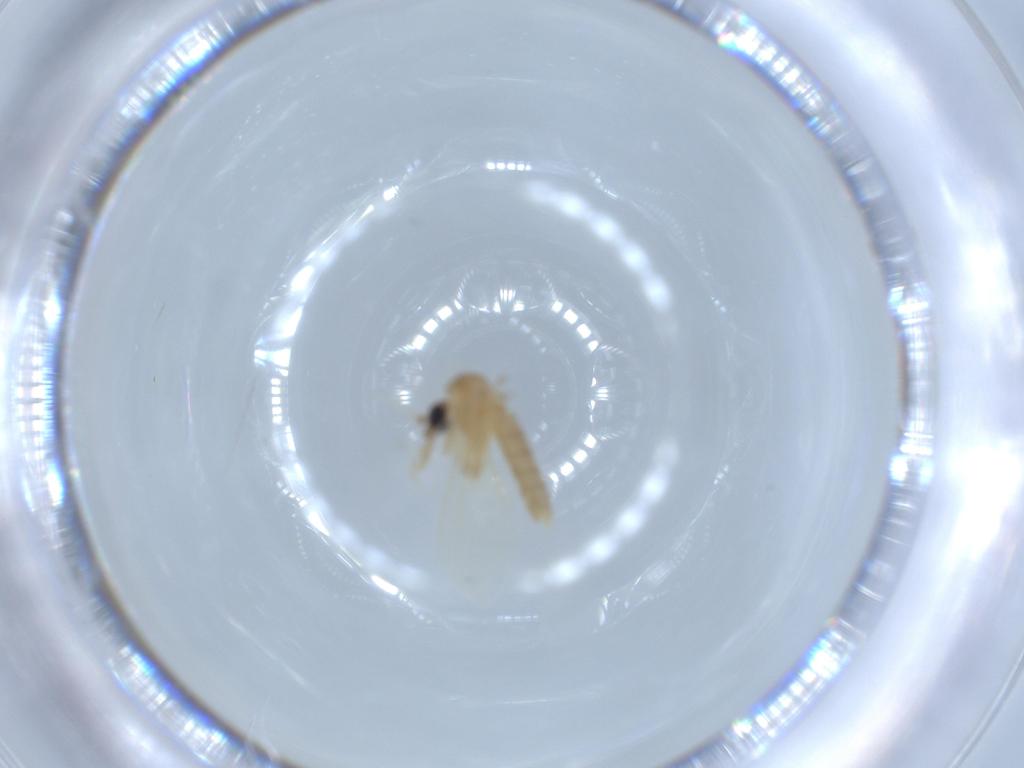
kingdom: Animalia
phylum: Arthropoda
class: Insecta
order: Diptera
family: Psychodidae
